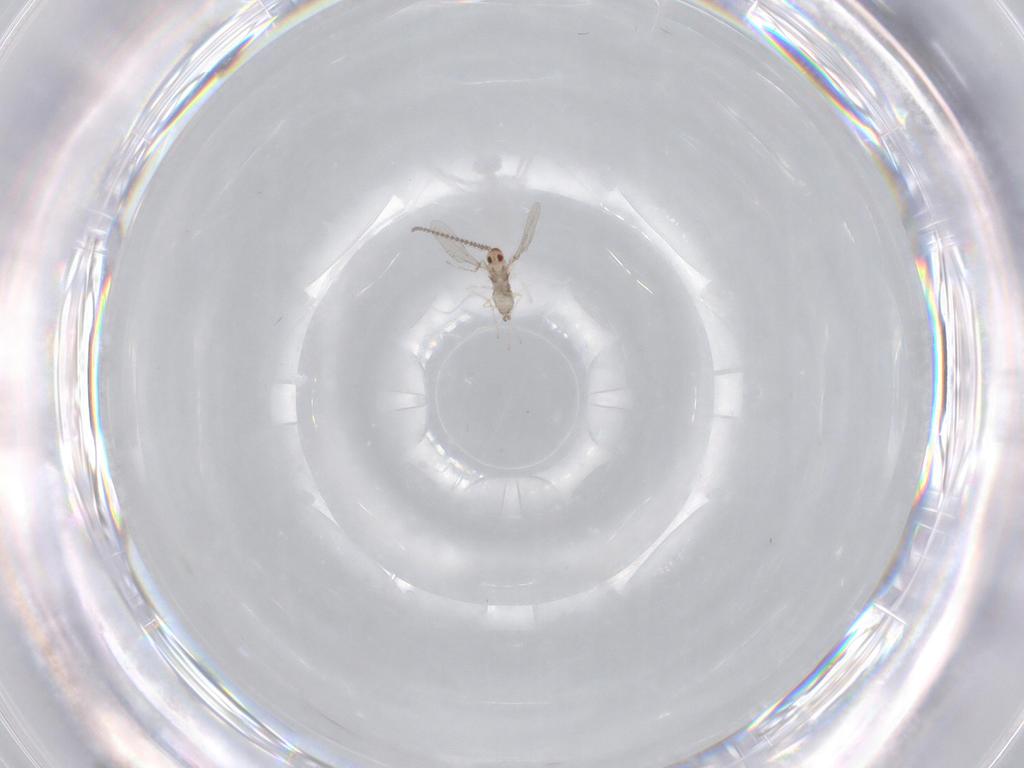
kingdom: Animalia
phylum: Arthropoda
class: Insecta
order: Diptera
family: Cecidomyiidae
